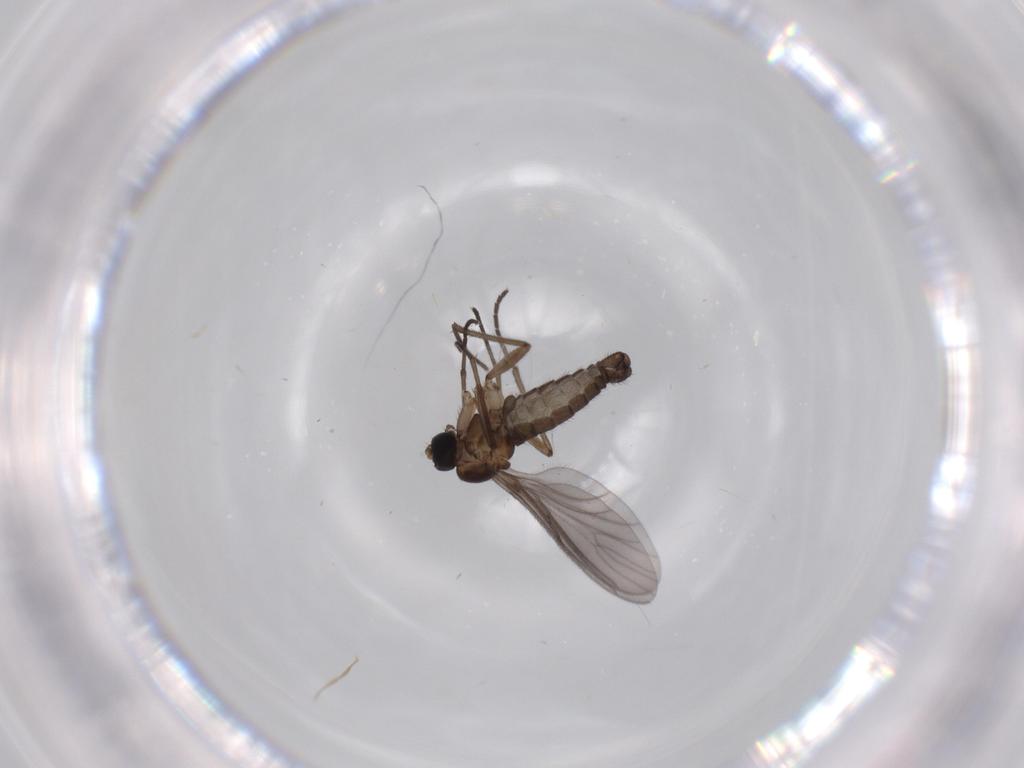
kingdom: Animalia
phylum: Arthropoda
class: Insecta
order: Diptera
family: Sciaridae
